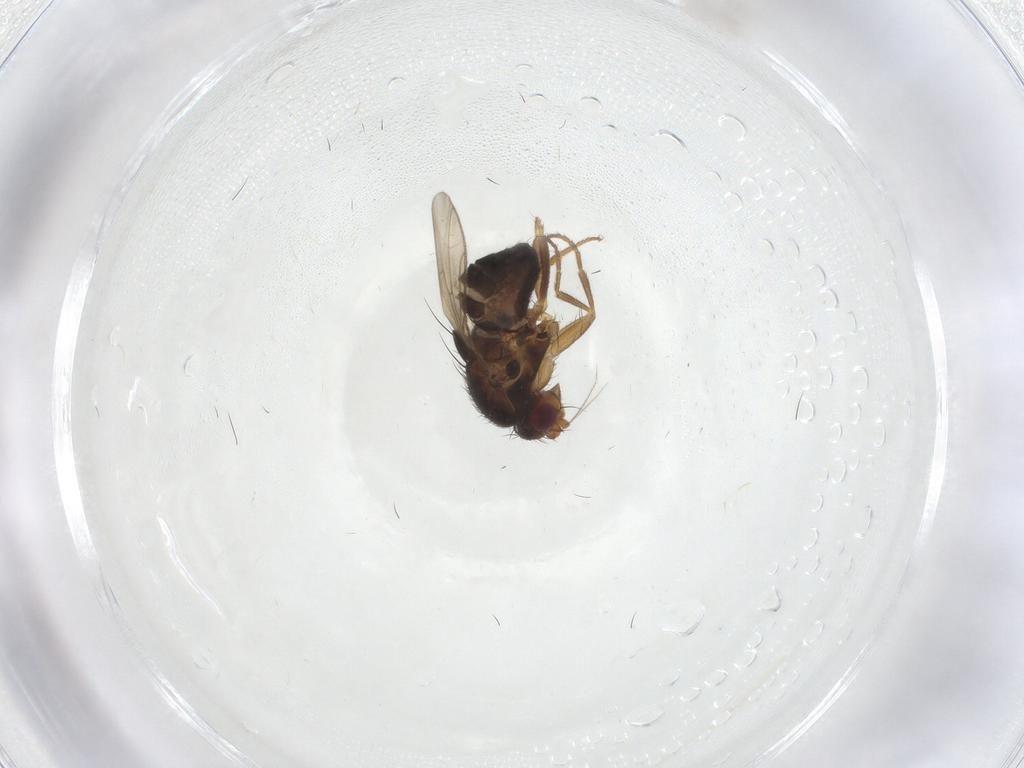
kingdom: Animalia
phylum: Arthropoda
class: Insecta
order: Diptera
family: Sphaeroceridae
